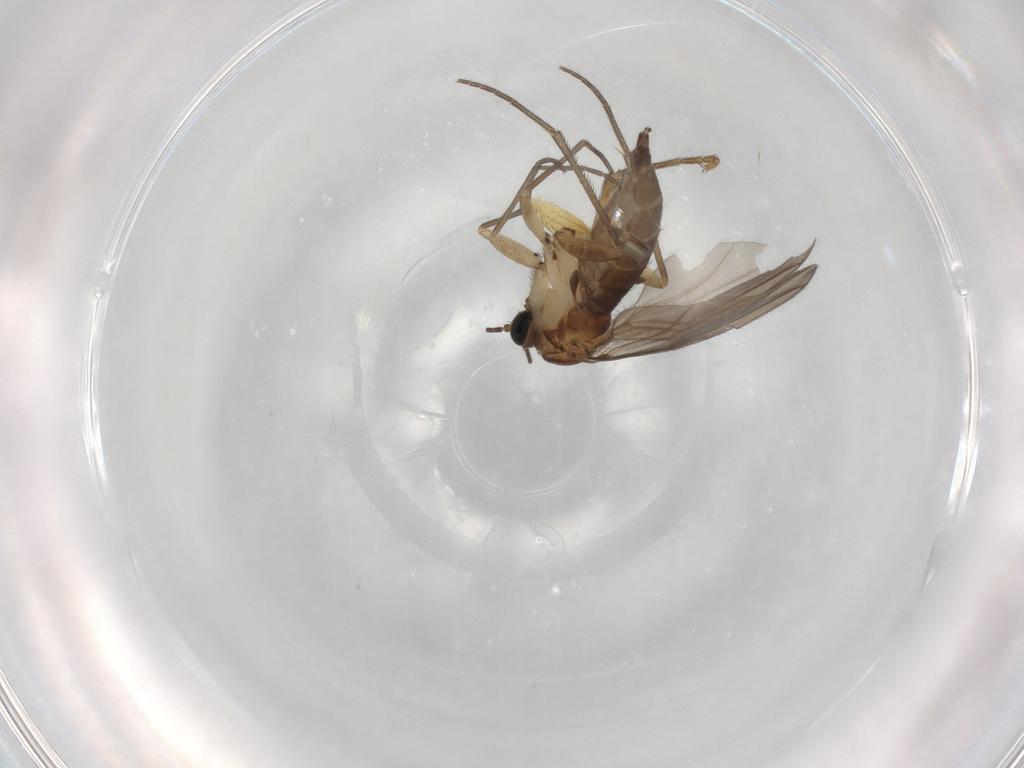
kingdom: Animalia
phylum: Arthropoda
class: Insecta
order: Diptera
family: Sciaridae
